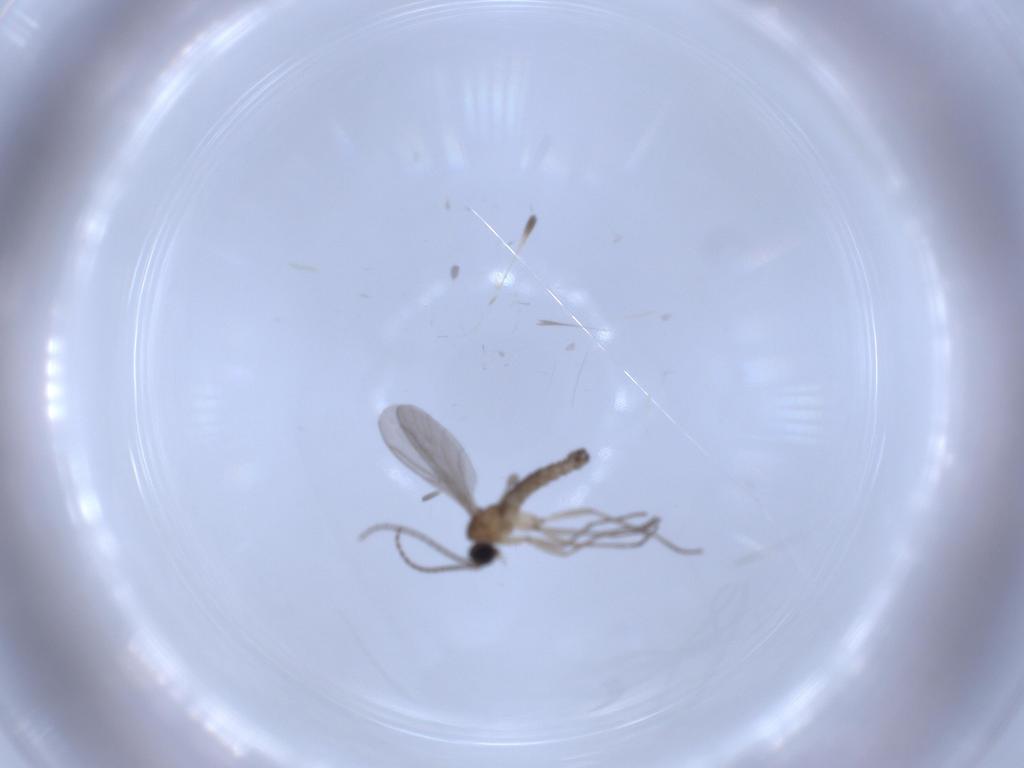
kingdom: Animalia
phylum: Arthropoda
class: Insecta
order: Diptera
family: Sciaridae
